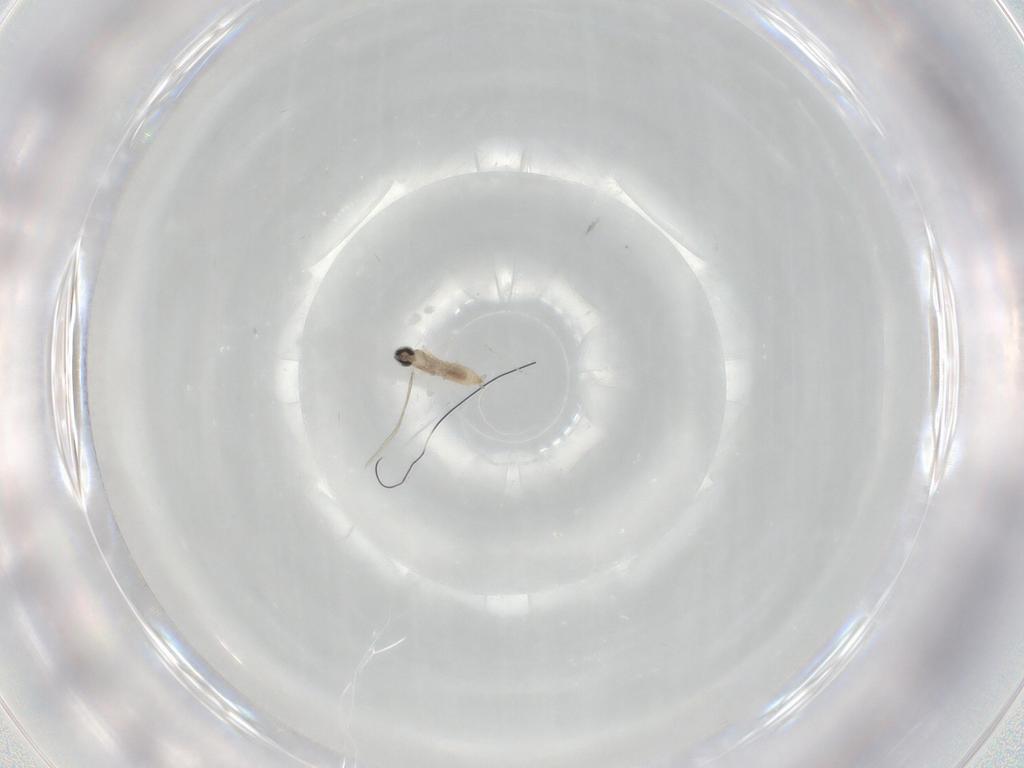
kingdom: Animalia
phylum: Arthropoda
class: Insecta
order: Diptera
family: Cecidomyiidae
